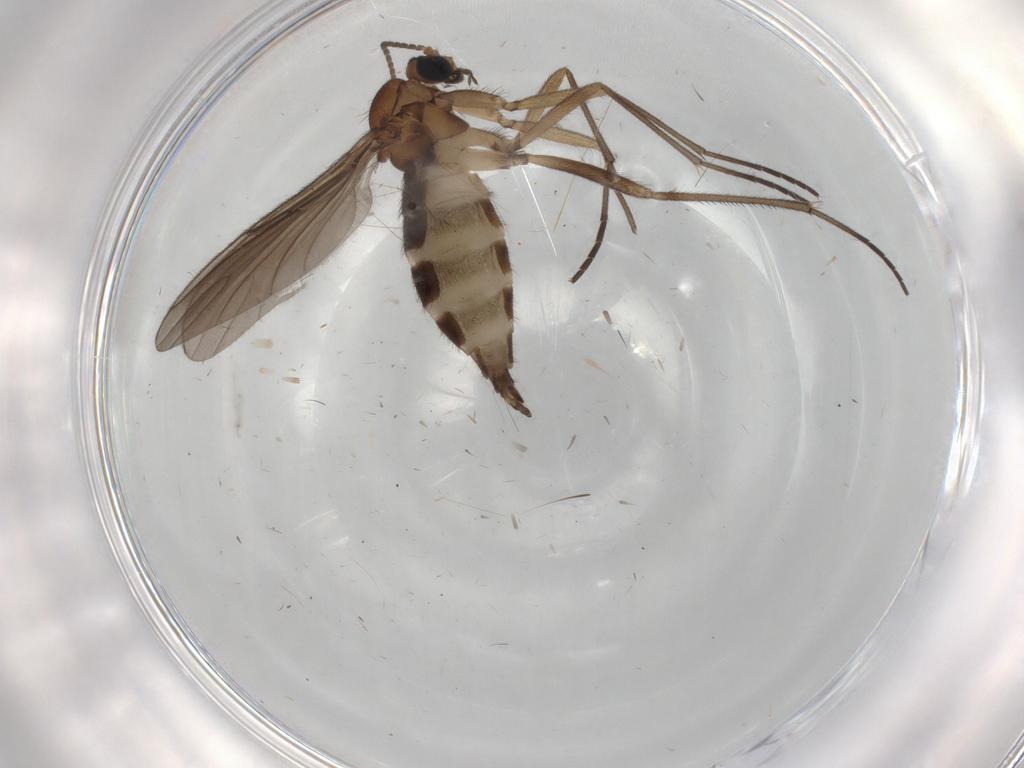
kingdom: Animalia
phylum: Arthropoda
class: Insecta
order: Diptera
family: Sciaridae
